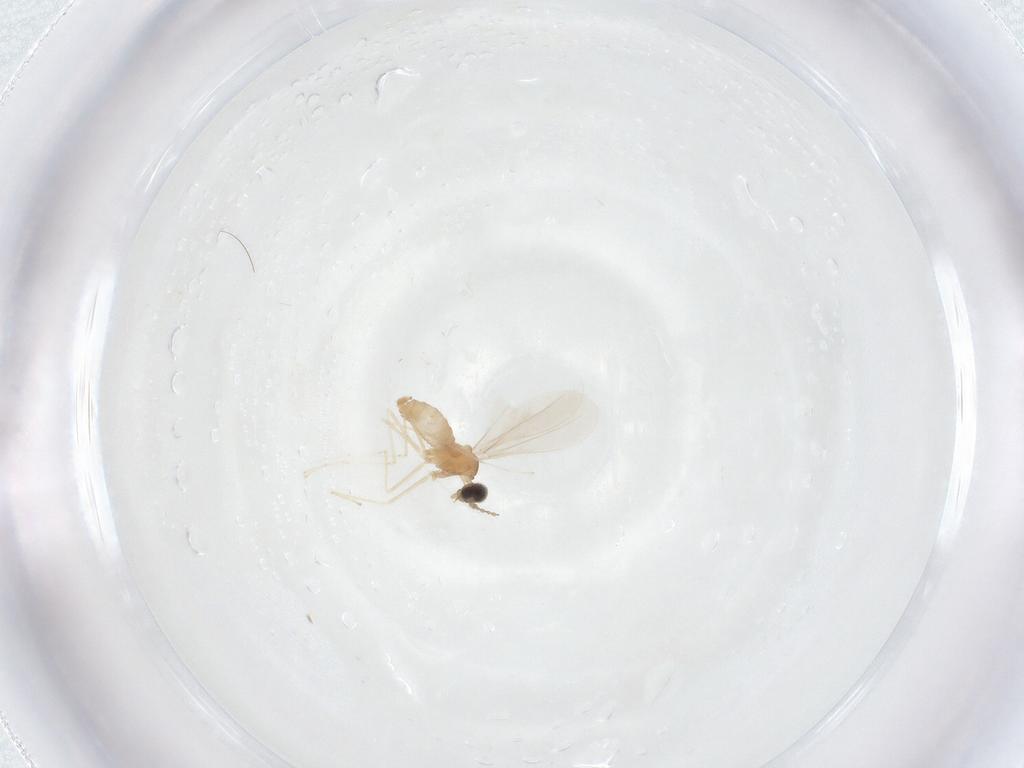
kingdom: Animalia
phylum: Arthropoda
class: Insecta
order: Diptera
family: Cecidomyiidae
